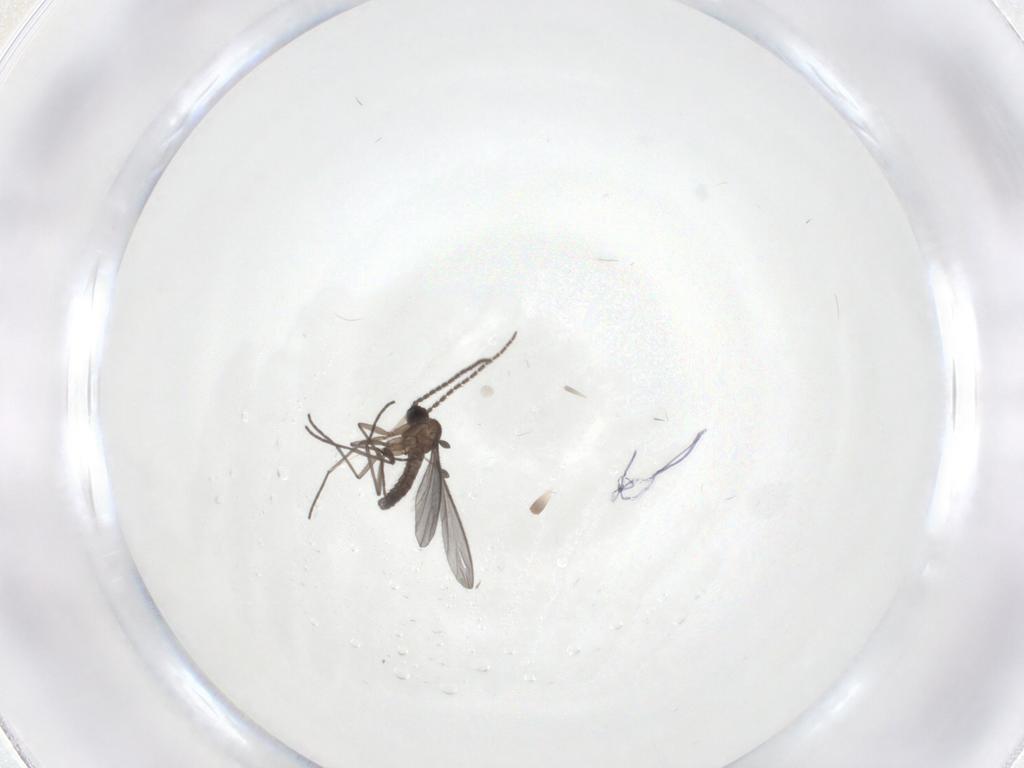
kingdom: Animalia
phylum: Arthropoda
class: Insecta
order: Diptera
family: Sciaridae
